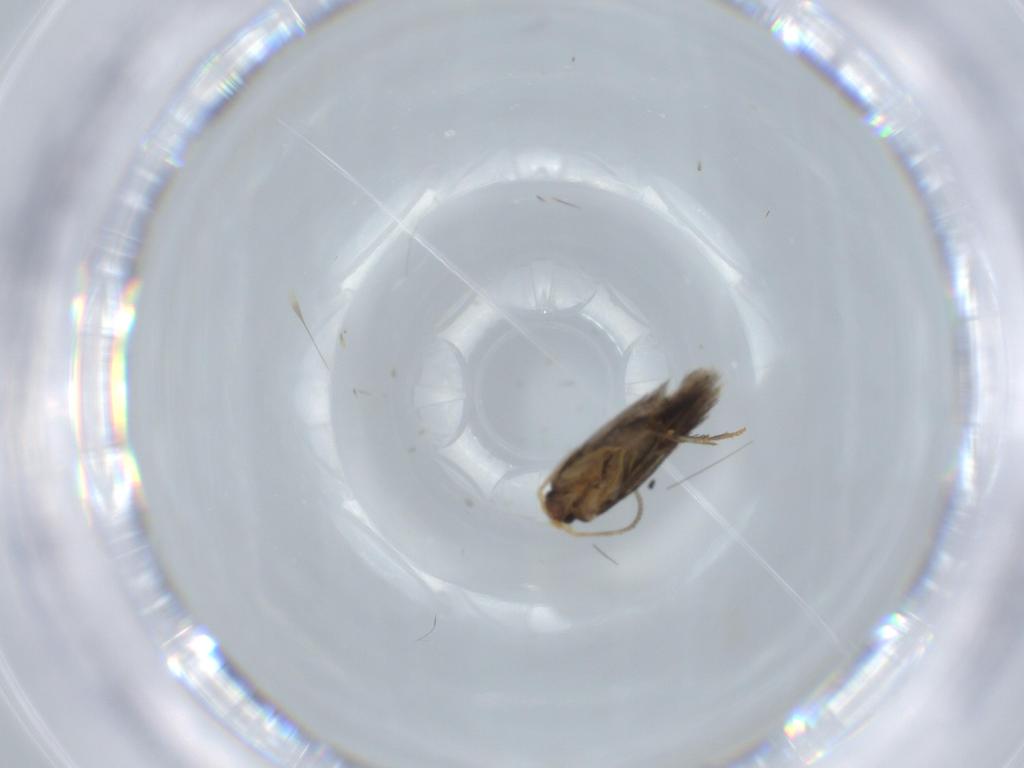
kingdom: Animalia
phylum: Arthropoda
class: Insecta
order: Lepidoptera
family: Nepticulidae
